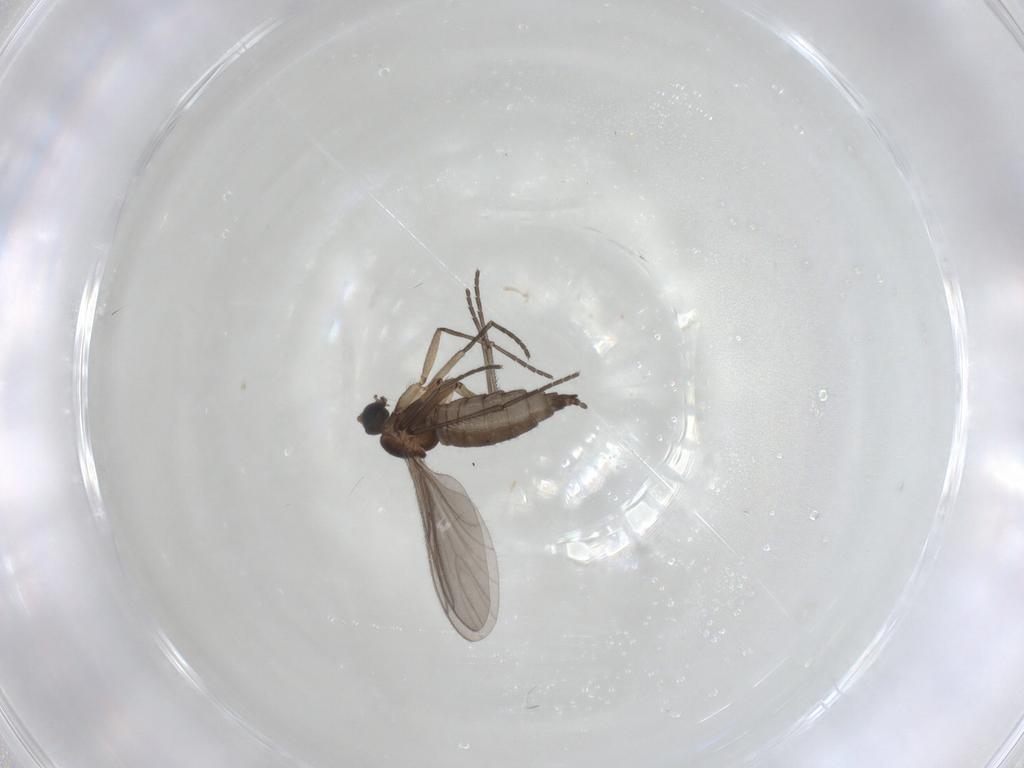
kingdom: Animalia
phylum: Arthropoda
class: Insecta
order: Diptera
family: Sciaridae
